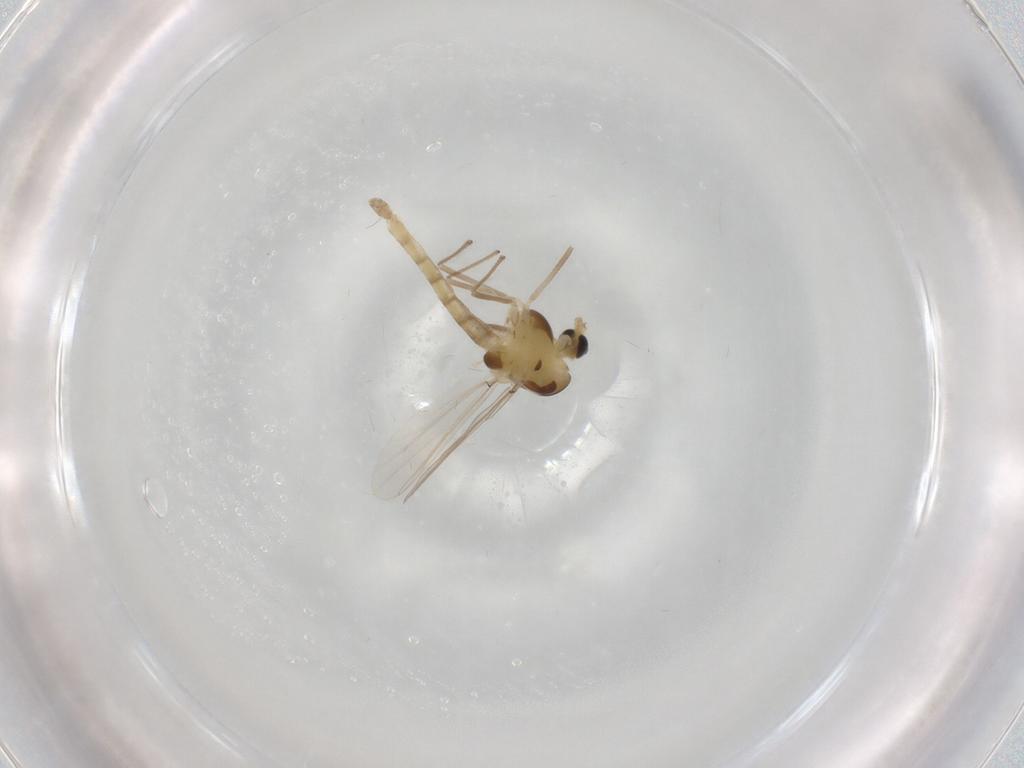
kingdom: Animalia
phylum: Arthropoda
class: Insecta
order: Diptera
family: Chironomidae
